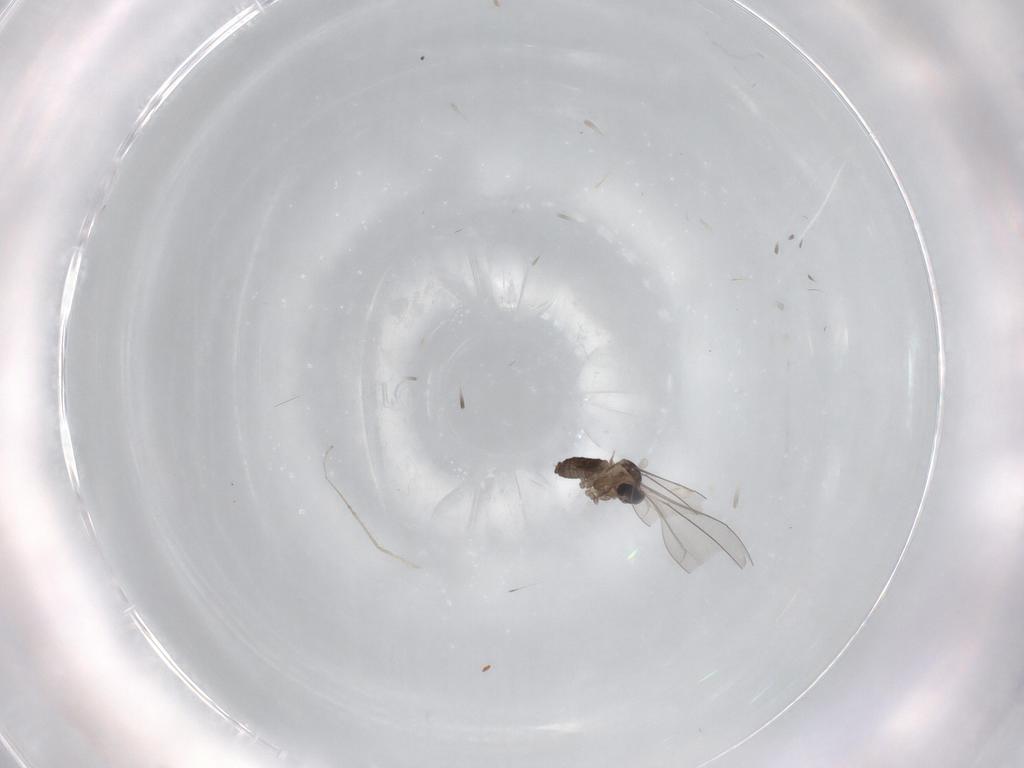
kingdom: Animalia
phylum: Arthropoda
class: Insecta
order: Diptera
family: Cecidomyiidae
